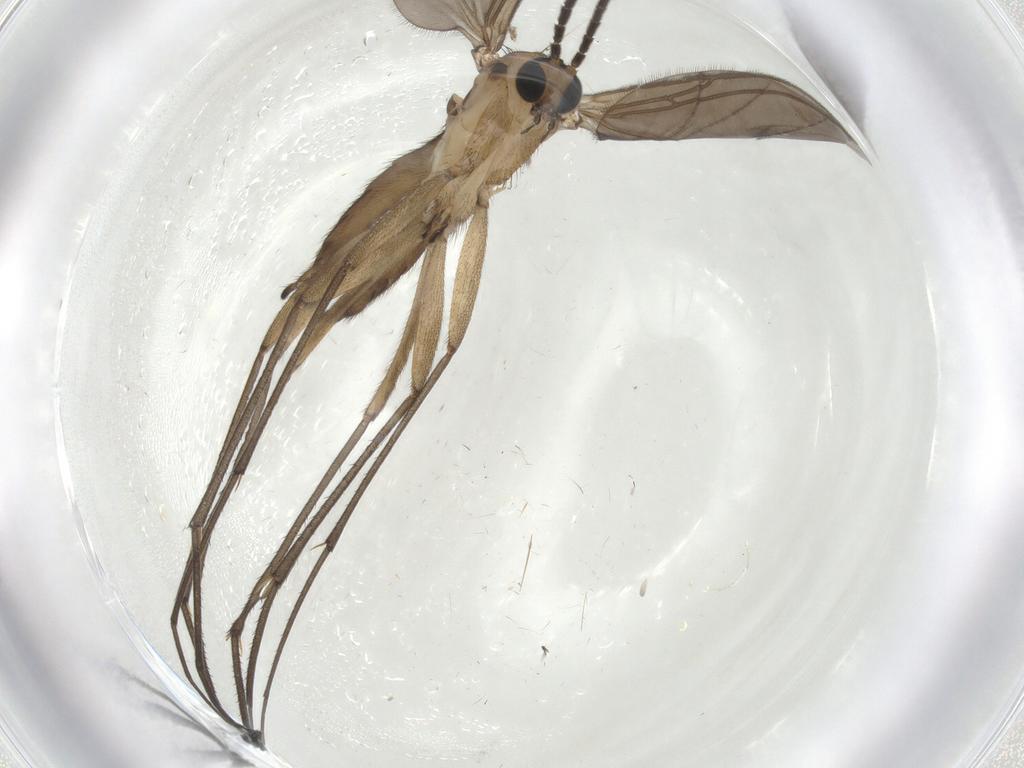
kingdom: Animalia
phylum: Arthropoda
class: Insecta
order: Diptera
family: Sciaridae
